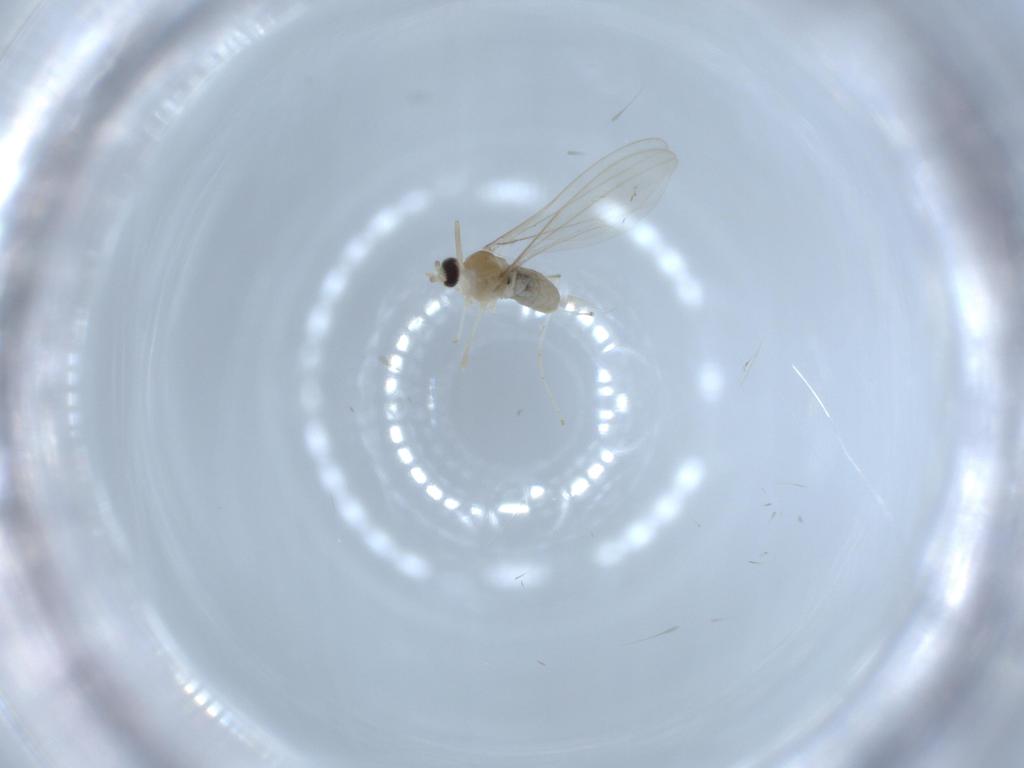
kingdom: Animalia
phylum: Arthropoda
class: Insecta
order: Diptera
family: Cecidomyiidae
